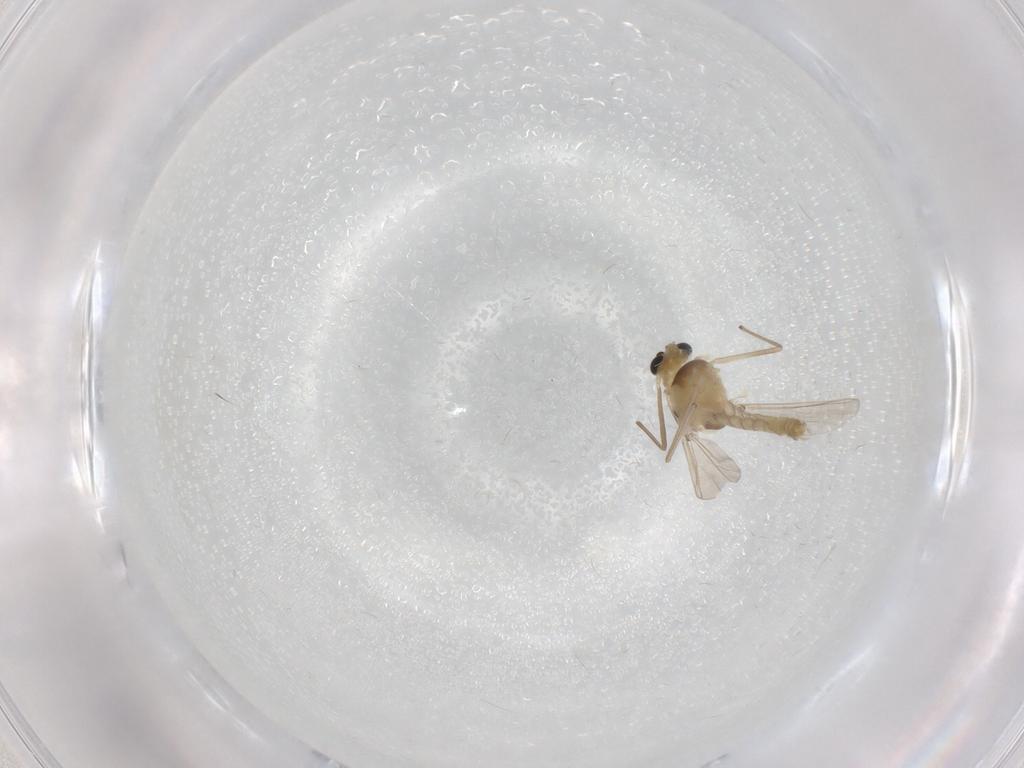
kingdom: Animalia
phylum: Arthropoda
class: Insecta
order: Diptera
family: Chironomidae
